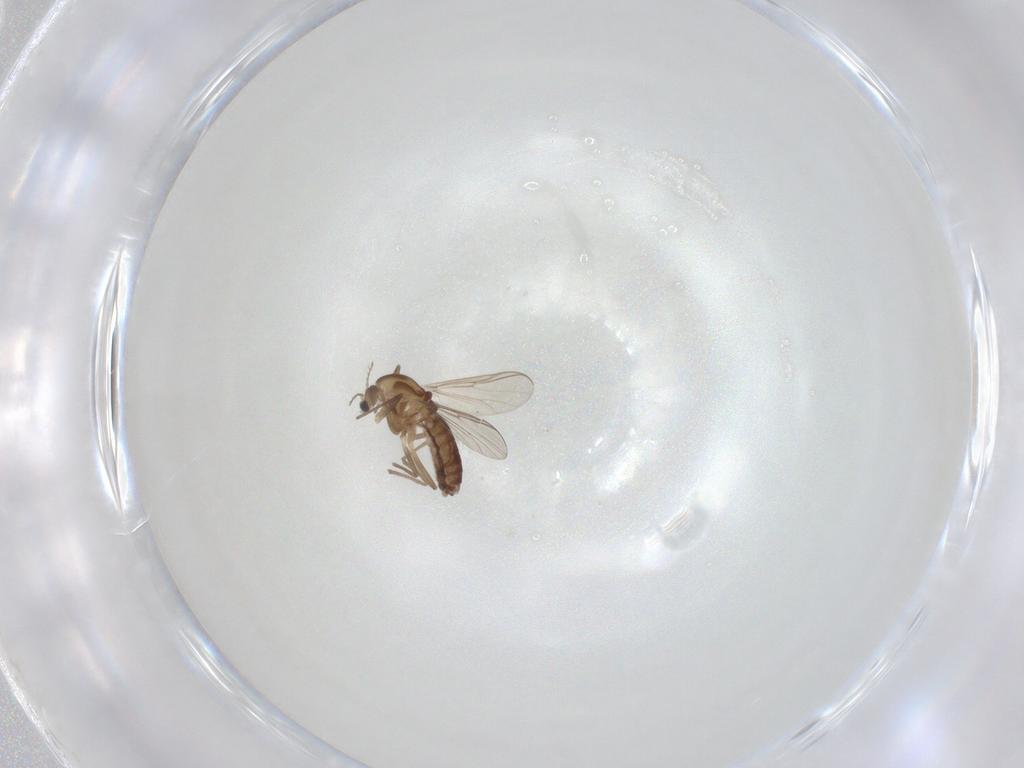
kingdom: Animalia
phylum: Arthropoda
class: Insecta
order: Diptera
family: Chironomidae
